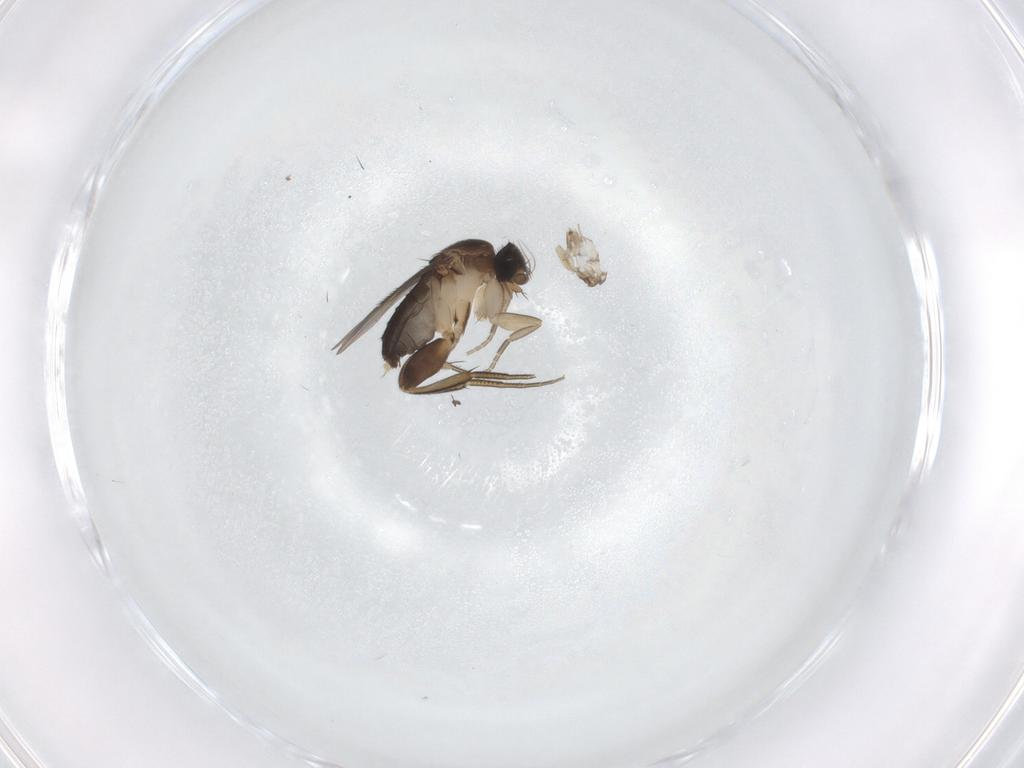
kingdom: Animalia
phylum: Arthropoda
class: Insecta
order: Diptera
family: Phoridae
